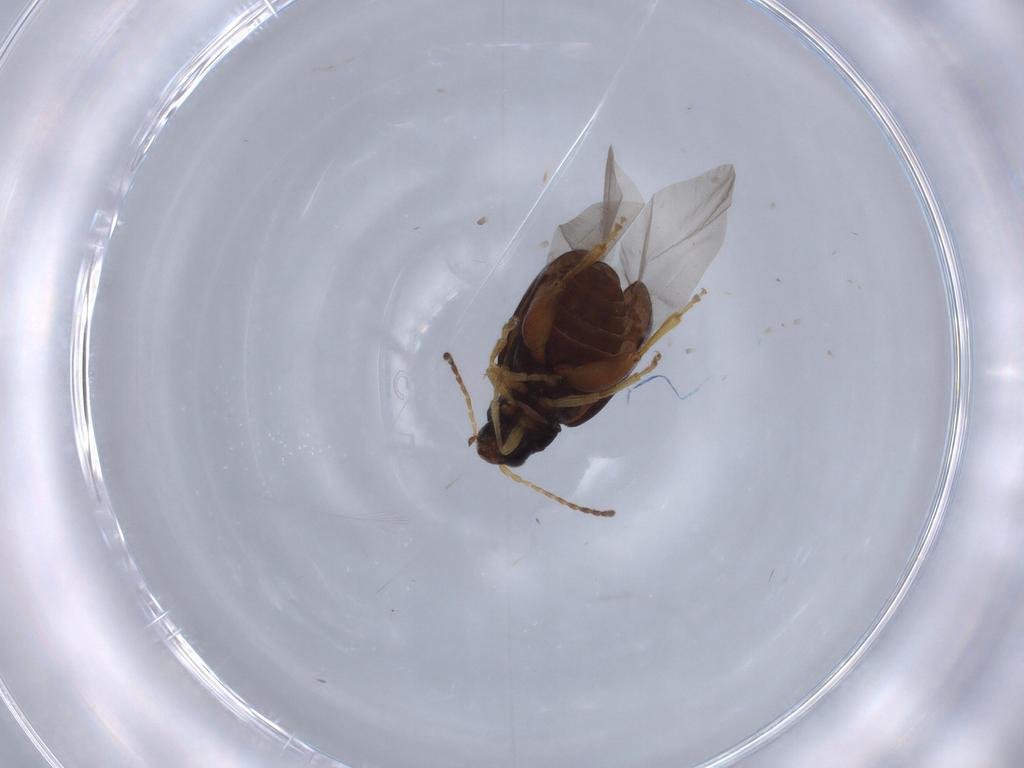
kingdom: Animalia
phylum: Arthropoda
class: Insecta
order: Coleoptera
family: Chrysomelidae
